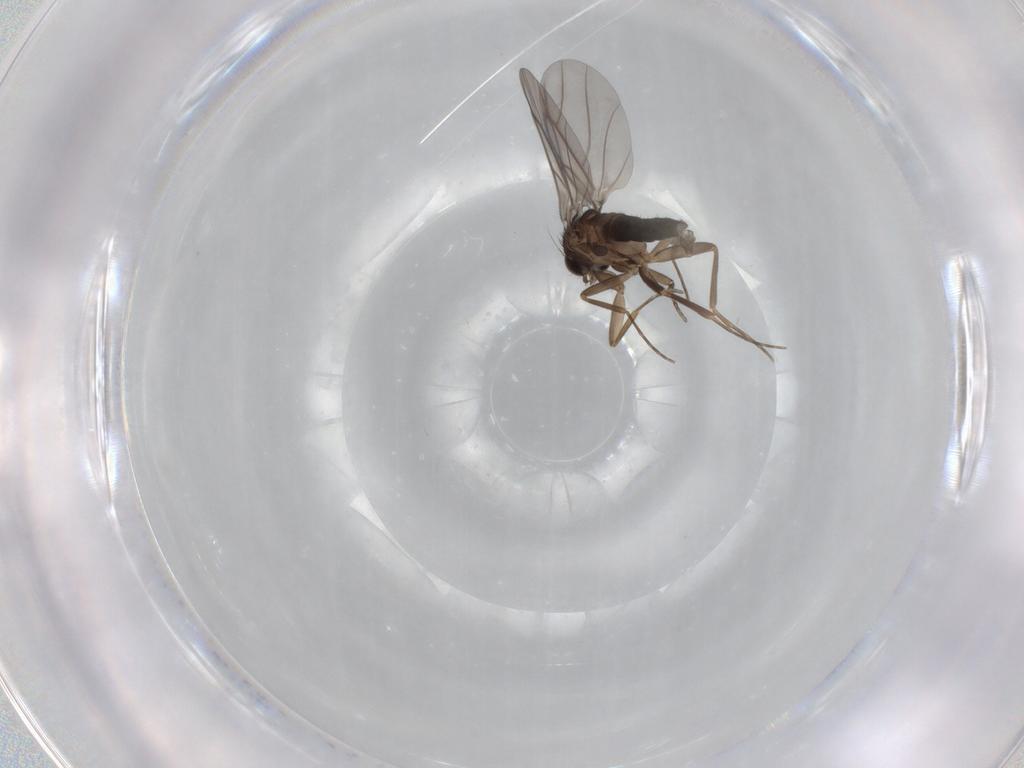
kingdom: Animalia
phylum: Arthropoda
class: Insecta
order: Diptera
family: Limoniidae
